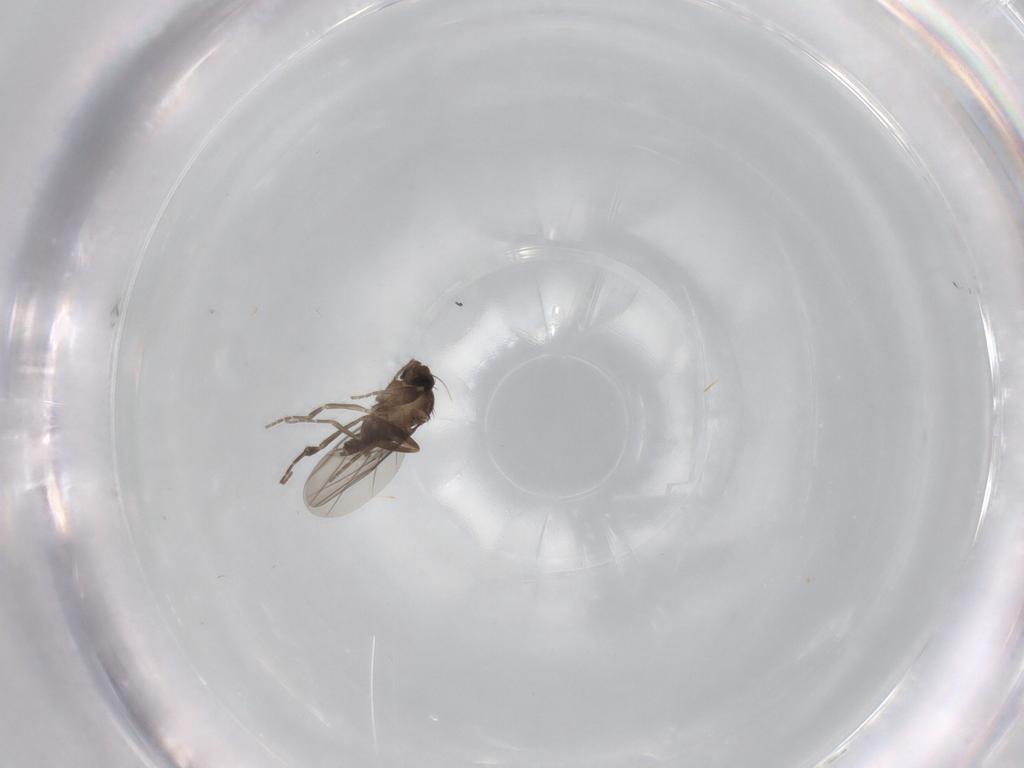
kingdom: Animalia
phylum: Arthropoda
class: Insecta
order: Diptera
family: Phoridae
